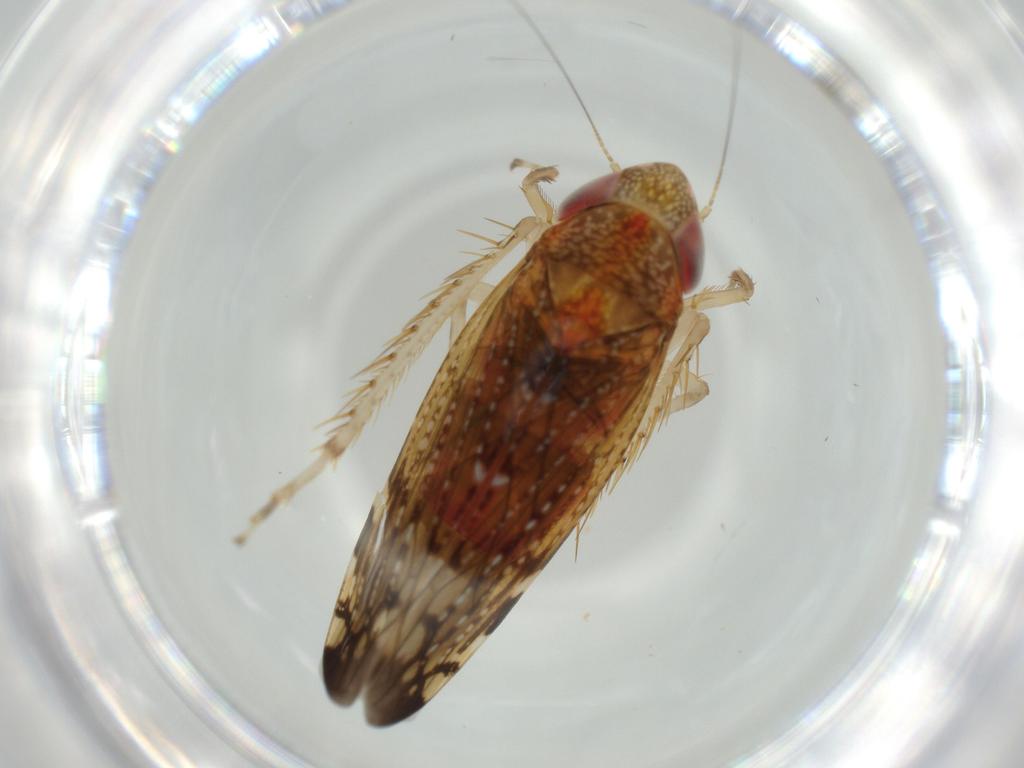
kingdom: Animalia
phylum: Arthropoda
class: Insecta
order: Hemiptera
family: Cicadellidae
